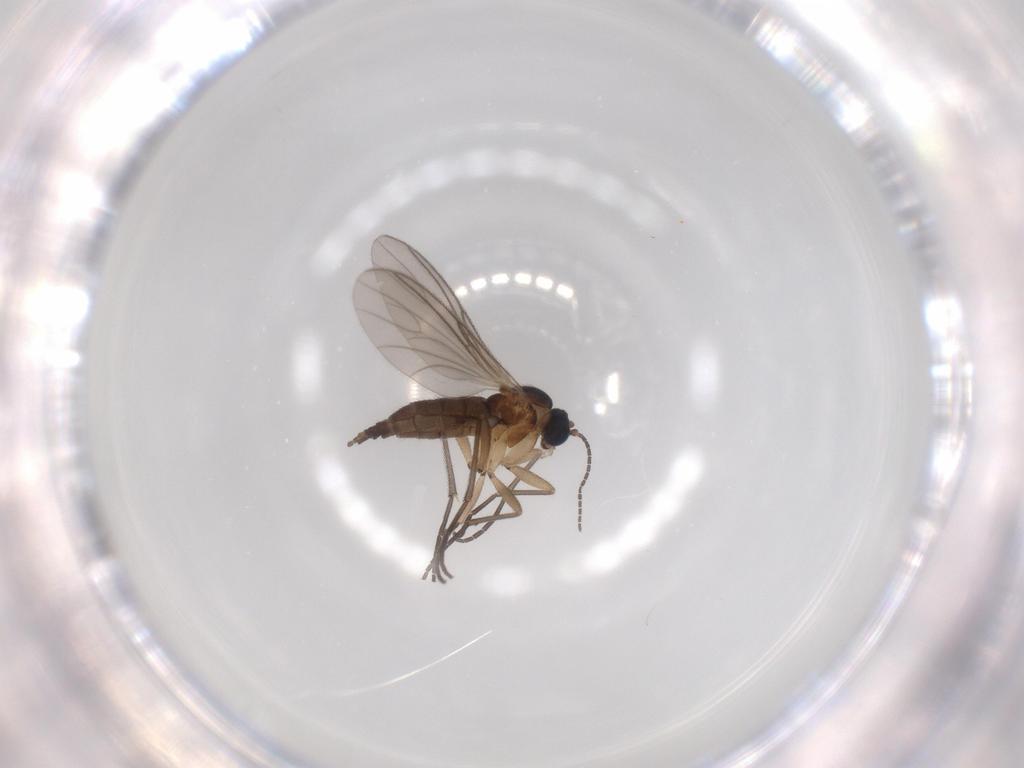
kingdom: Animalia
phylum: Arthropoda
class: Insecta
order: Diptera
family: Sciaridae
